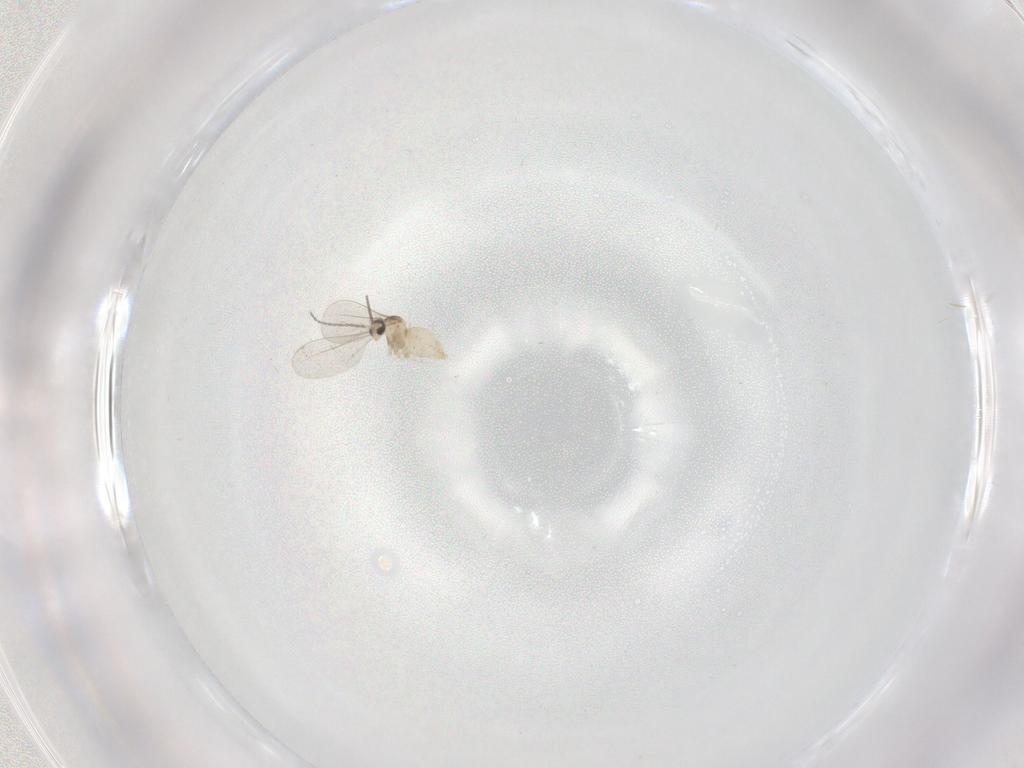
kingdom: Animalia
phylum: Arthropoda
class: Insecta
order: Diptera
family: Cecidomyiidae
